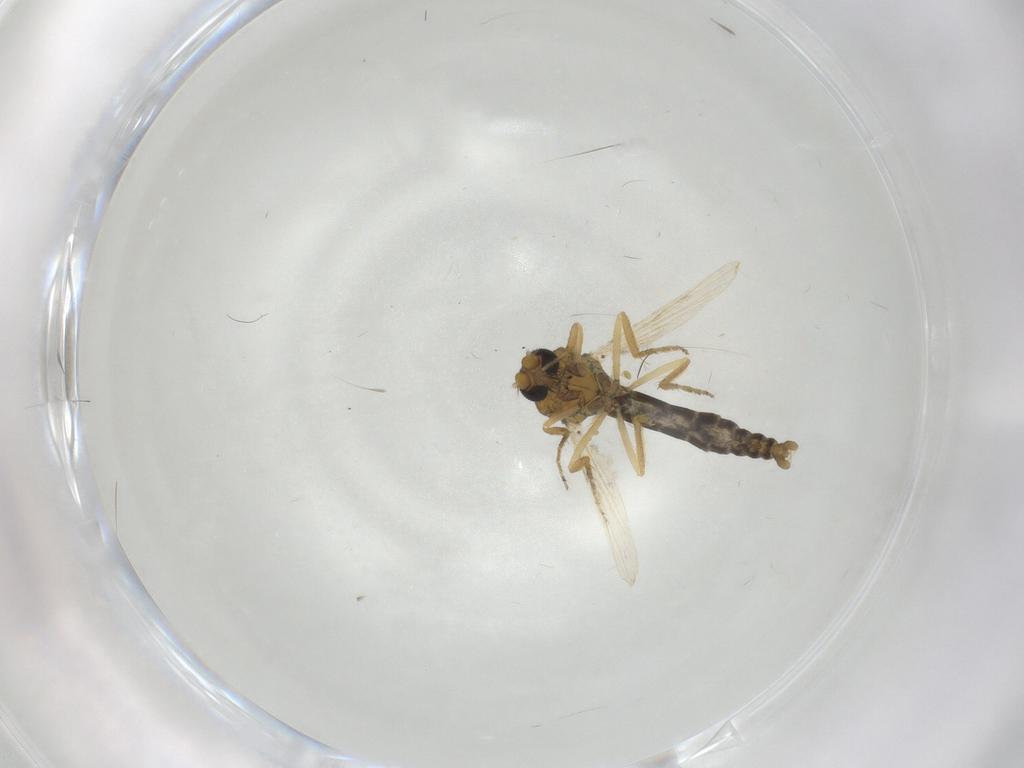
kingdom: Animalia
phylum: Arthropoda
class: Insecta
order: Diptera
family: Ceratopogonidae
